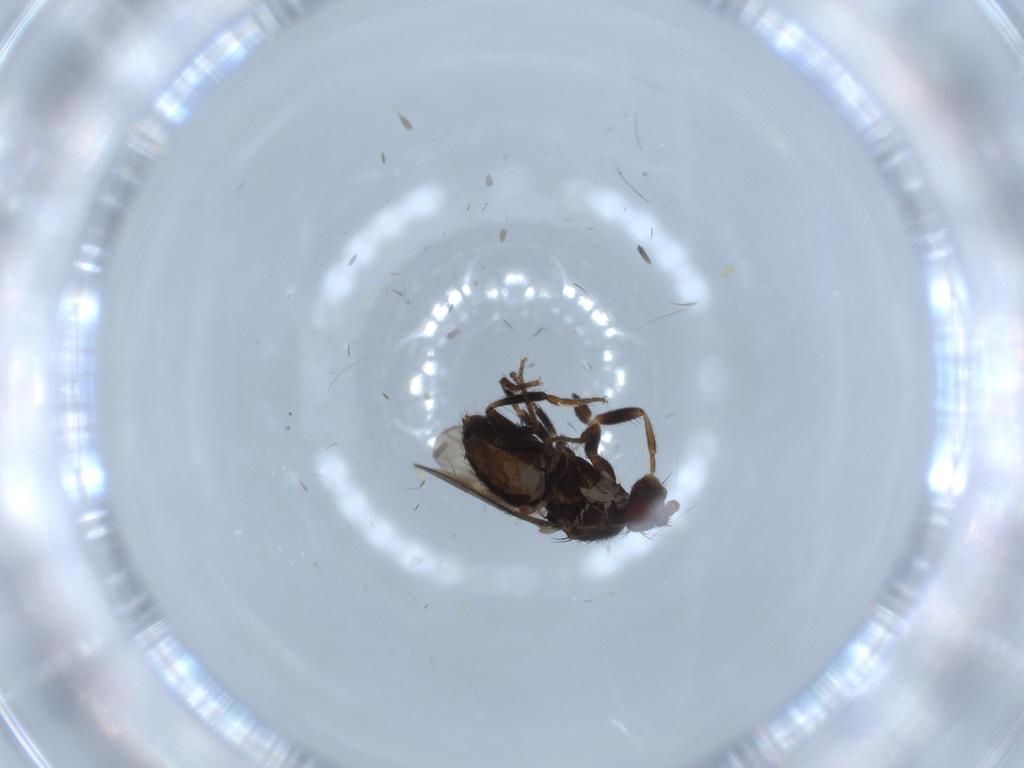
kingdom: Animalia
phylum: Arthropoda
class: Insecta
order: Diptera
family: Sphaeroceridae
